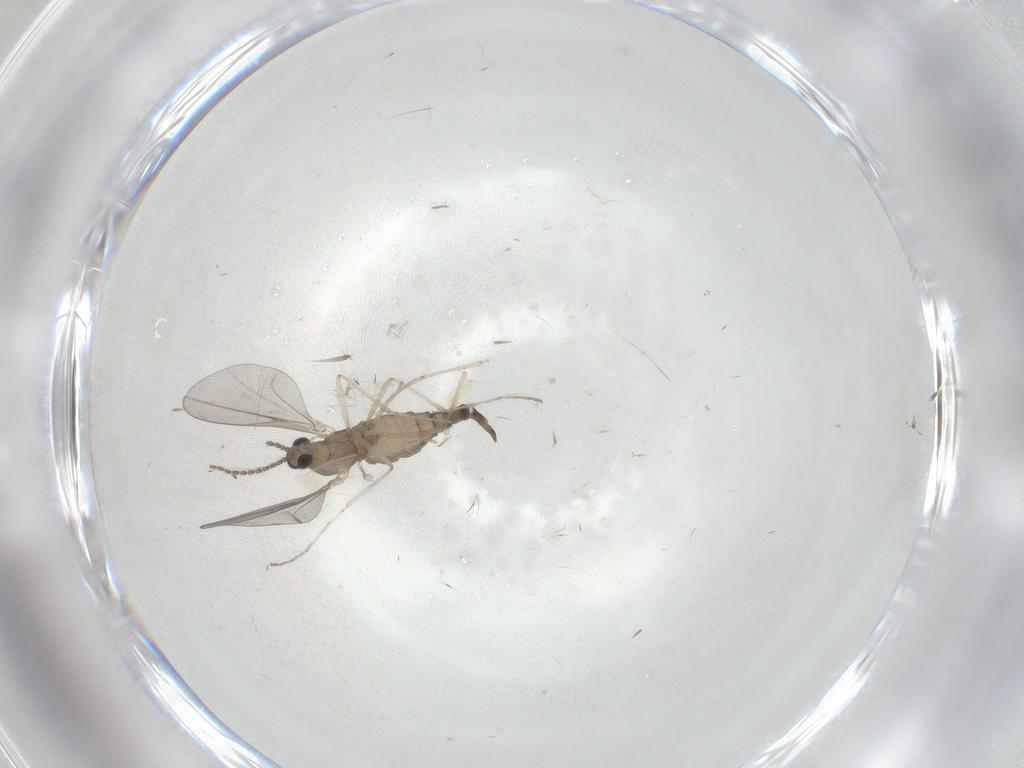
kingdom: Animalia
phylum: Arthropoda
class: Insecta
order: Diptera
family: Cecidomyiidae
